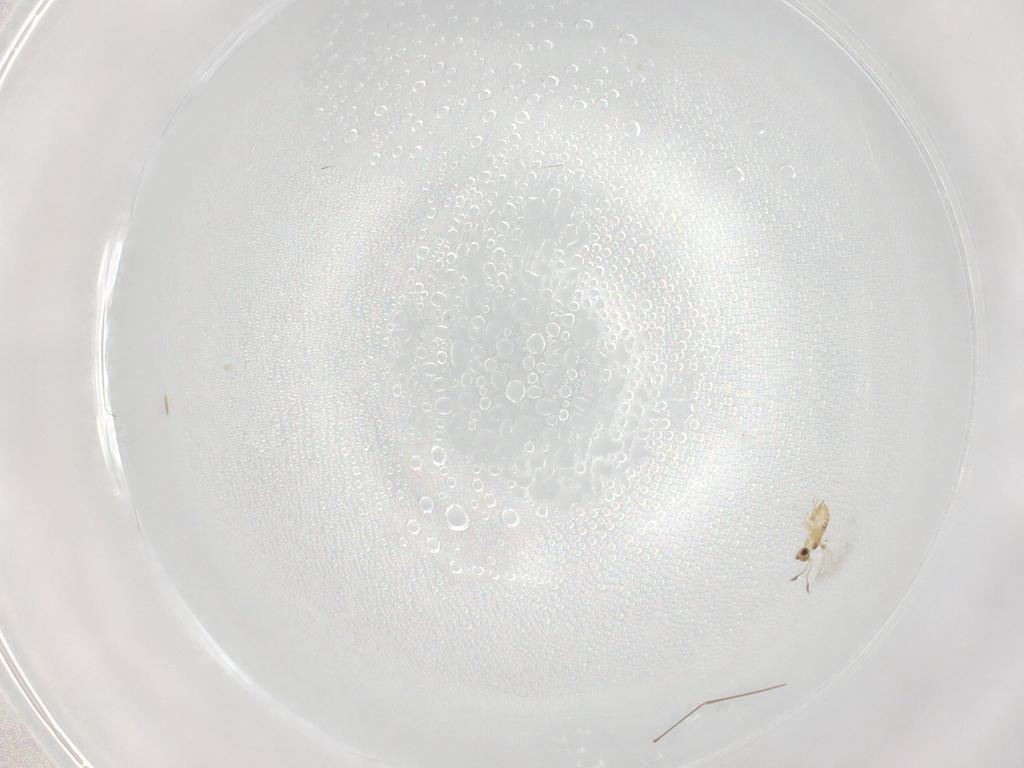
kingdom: Animalia
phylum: Arthropoda
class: Insecta
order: Hymenoptera
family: Mymaridae
